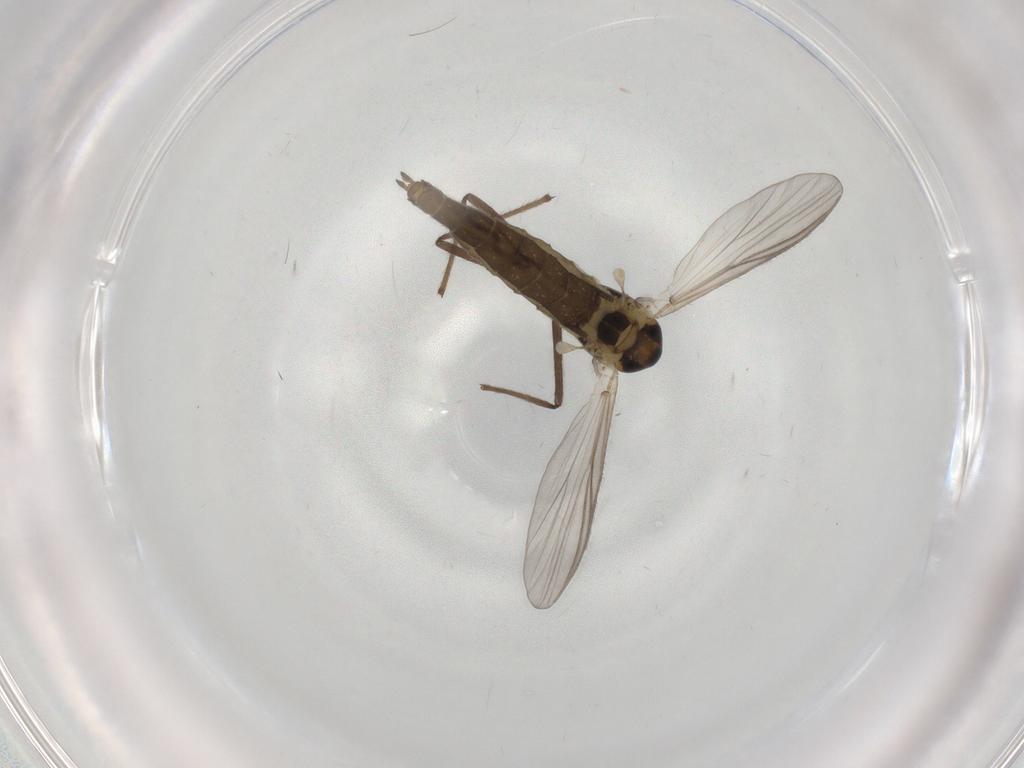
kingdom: Animalia
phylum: Arthropoda
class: Insecta
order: Diptera
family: Chironomidae
